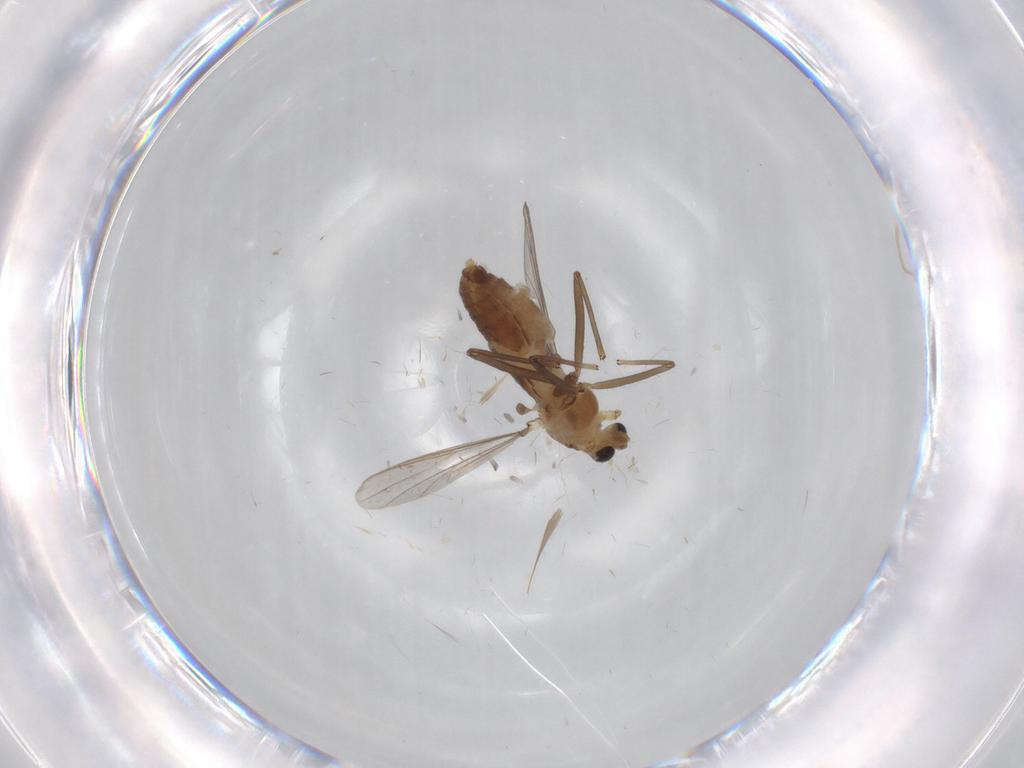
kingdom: Animalia
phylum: Arthropoda
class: Insecta
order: Diptera
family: Chironomidae
